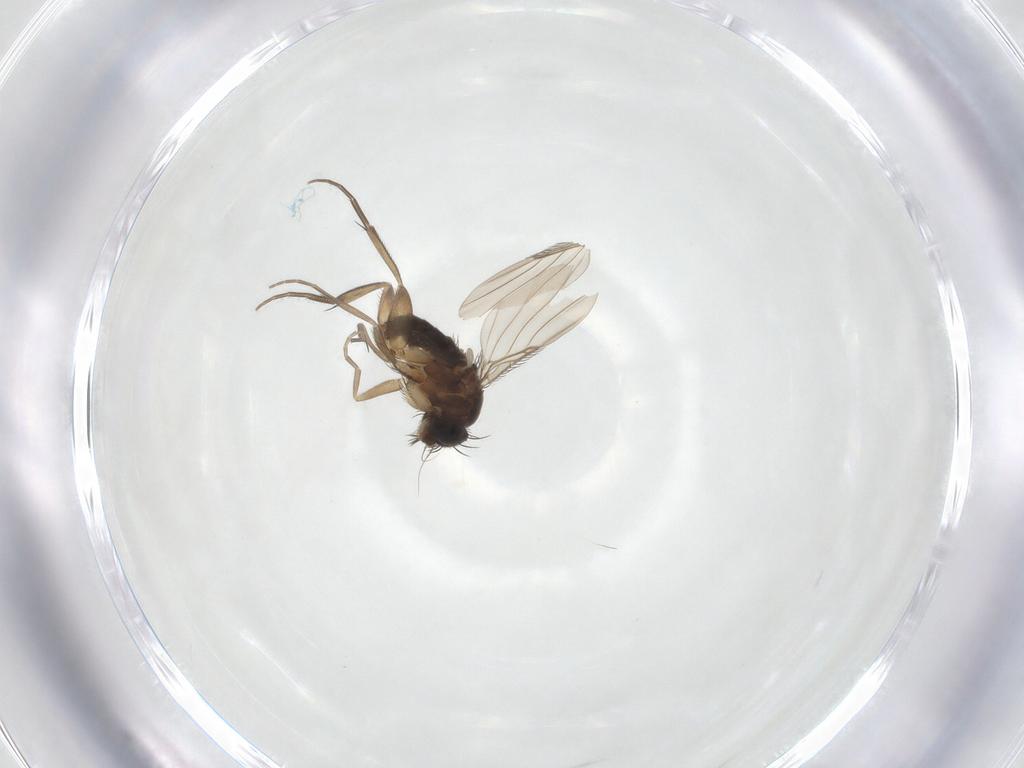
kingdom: Animalia
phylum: Arthropoda
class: Insecta
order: Diptera
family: Phoridae
